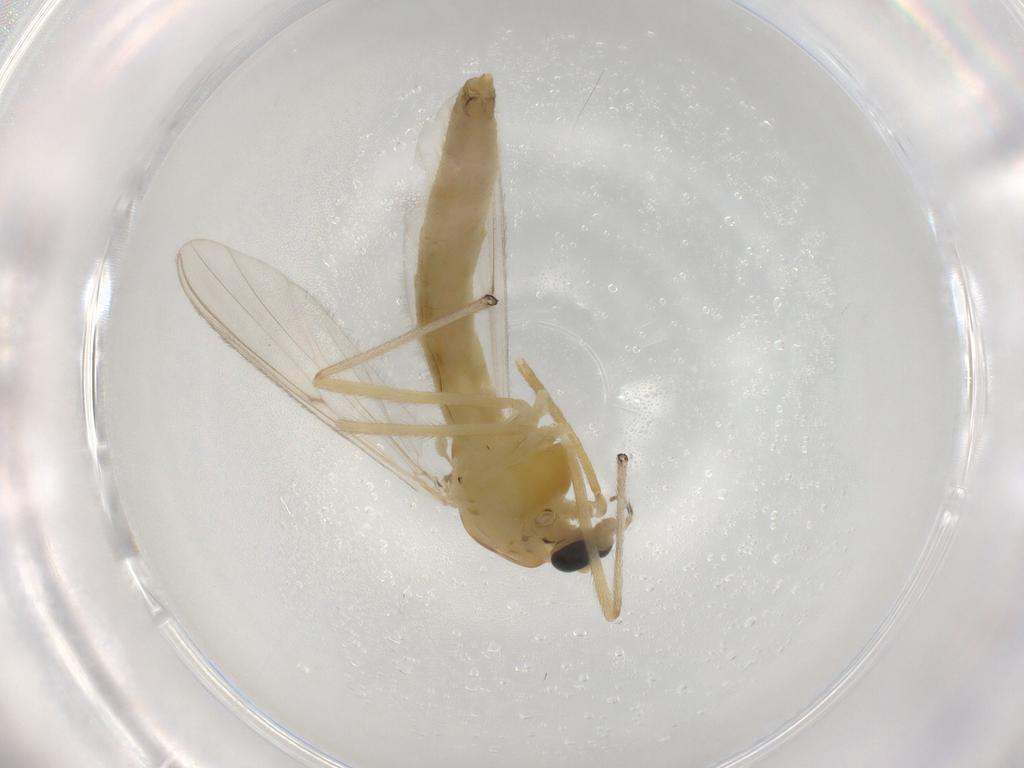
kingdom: Animalia
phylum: Arthropoda
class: Insecta
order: Diptera
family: Chironomidae
